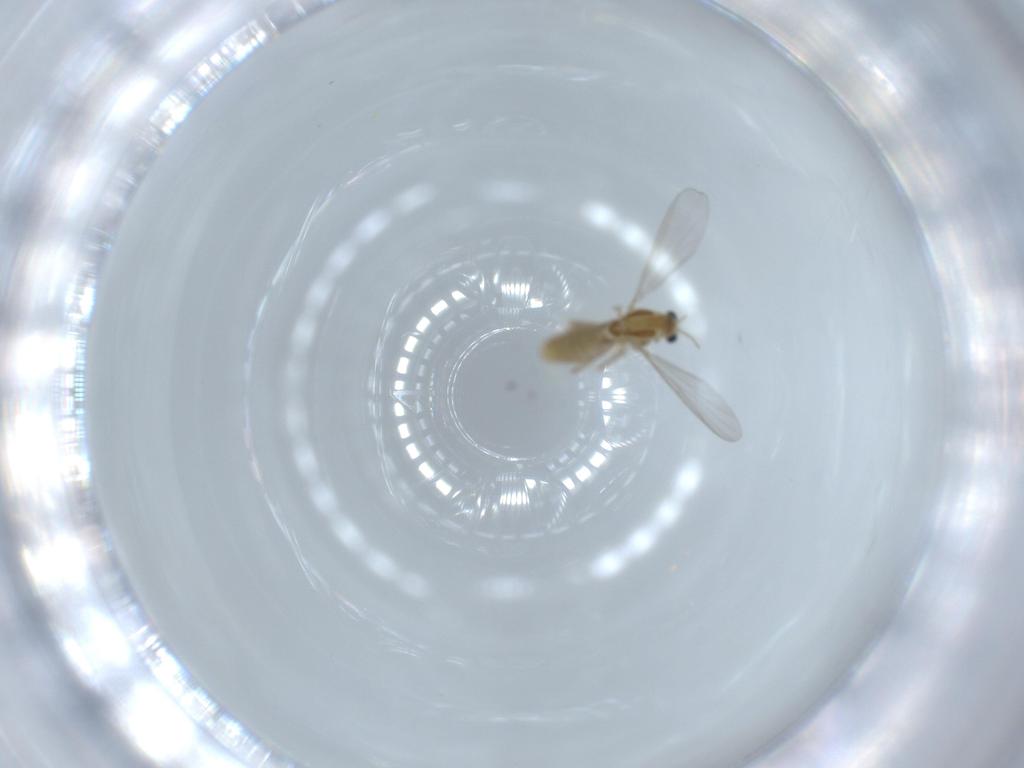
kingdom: Animalia
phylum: Arthropoda
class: Insecta
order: Diptera
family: Chironomidae
